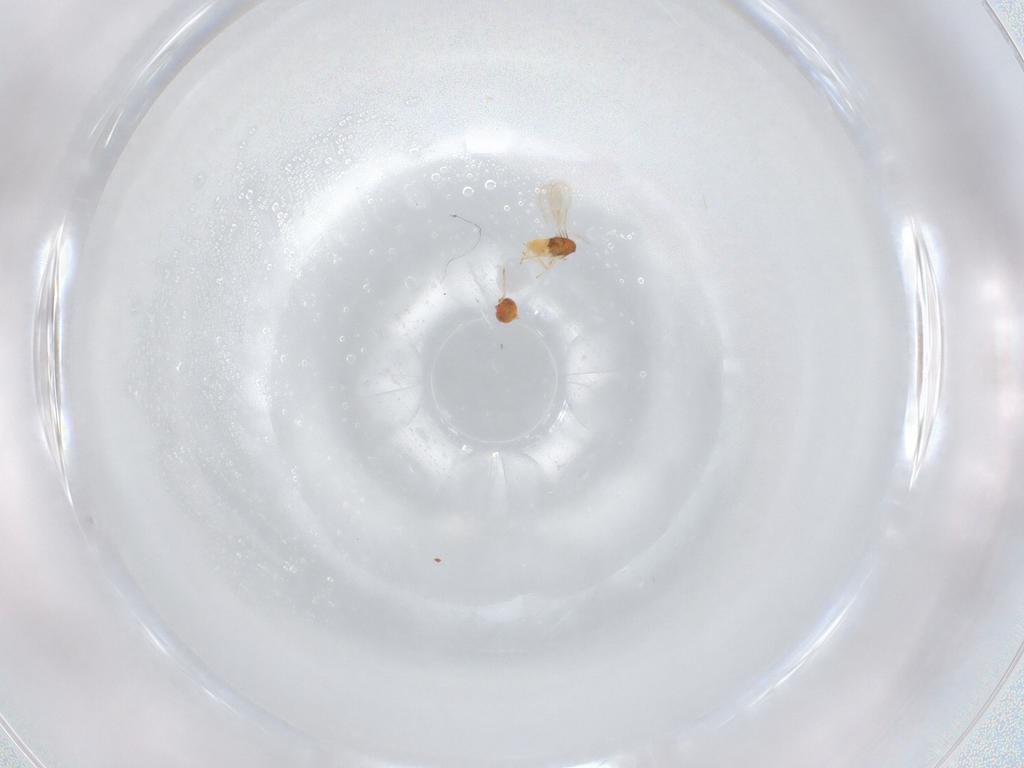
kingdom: Animalia
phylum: Arthropoda
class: Insecta
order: Hymenoptera
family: Aphelinidae
